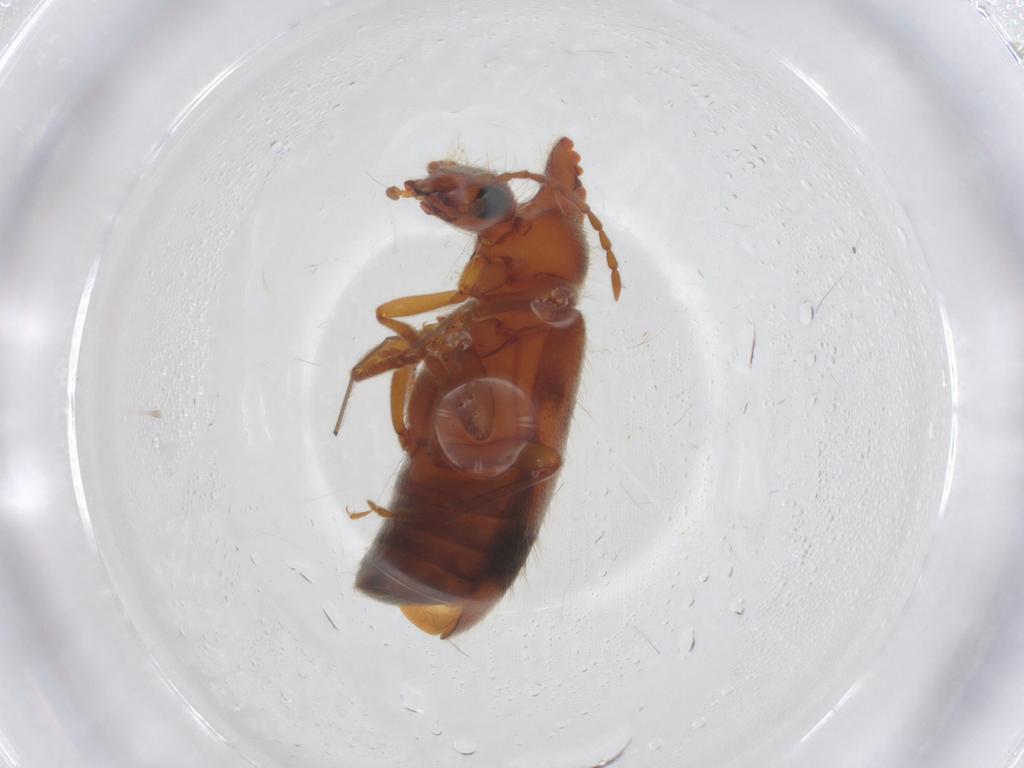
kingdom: Animalia
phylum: Arthropoda
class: Insecta
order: Coleoptera
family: Anthicidae
